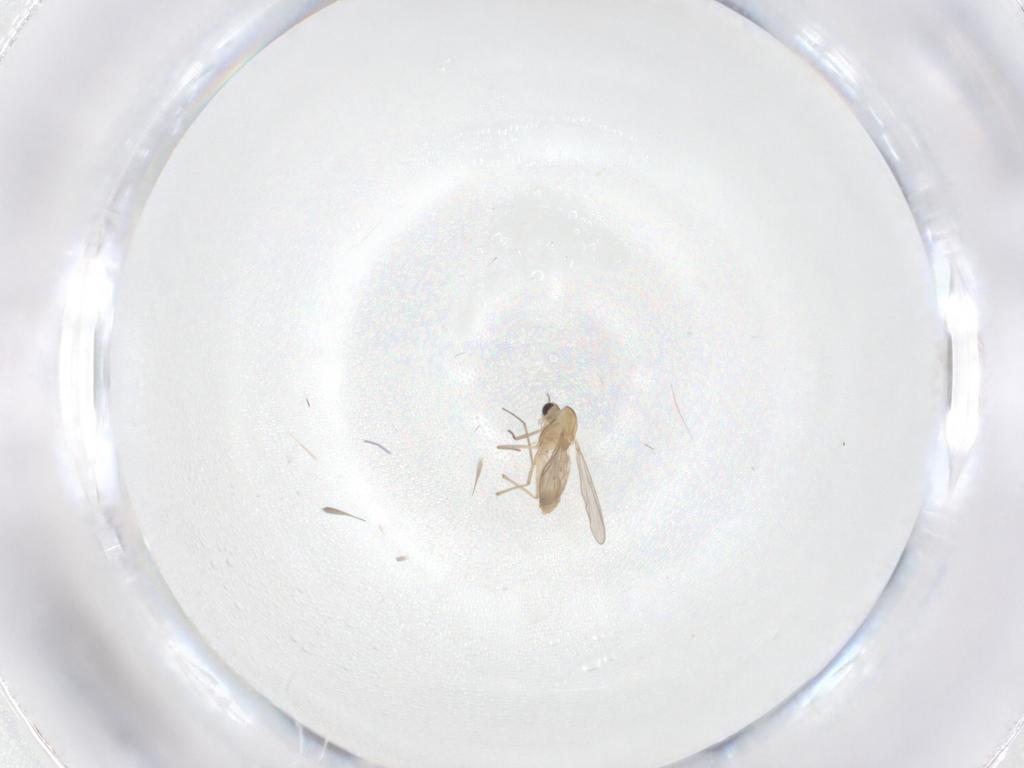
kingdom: Animalia
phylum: Arthropoda
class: Insecta
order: Diptera
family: Chironomidae
